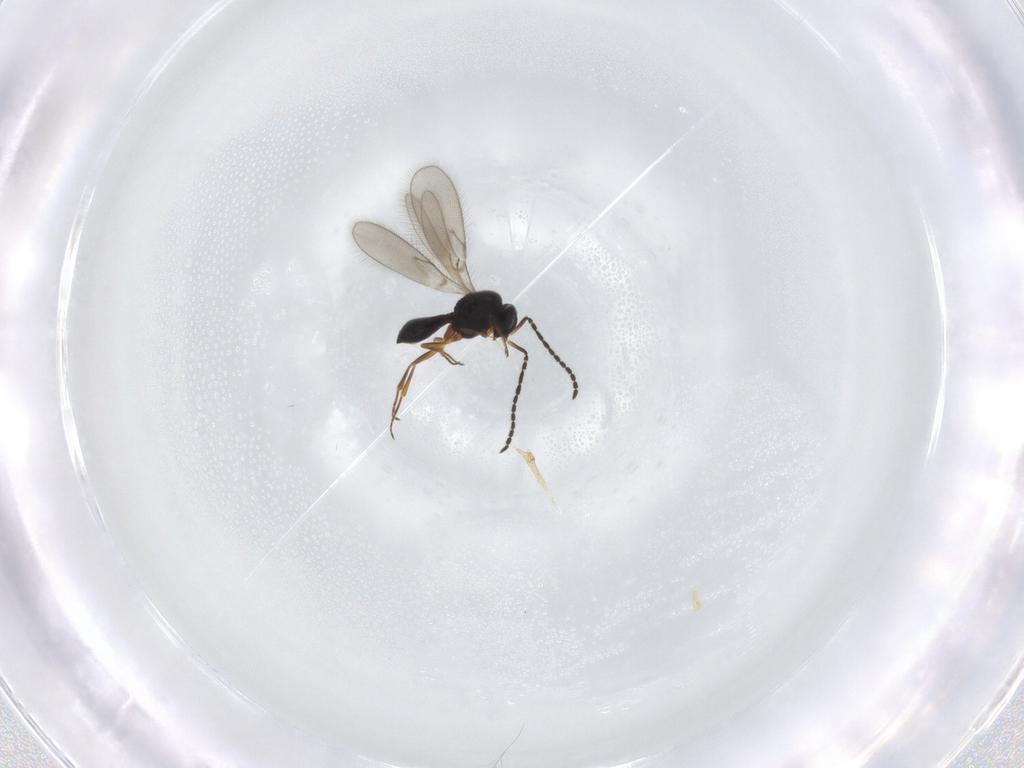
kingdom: Animalia
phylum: Arthropoda
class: Insecta
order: Hymenoptera
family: Scelionidae
